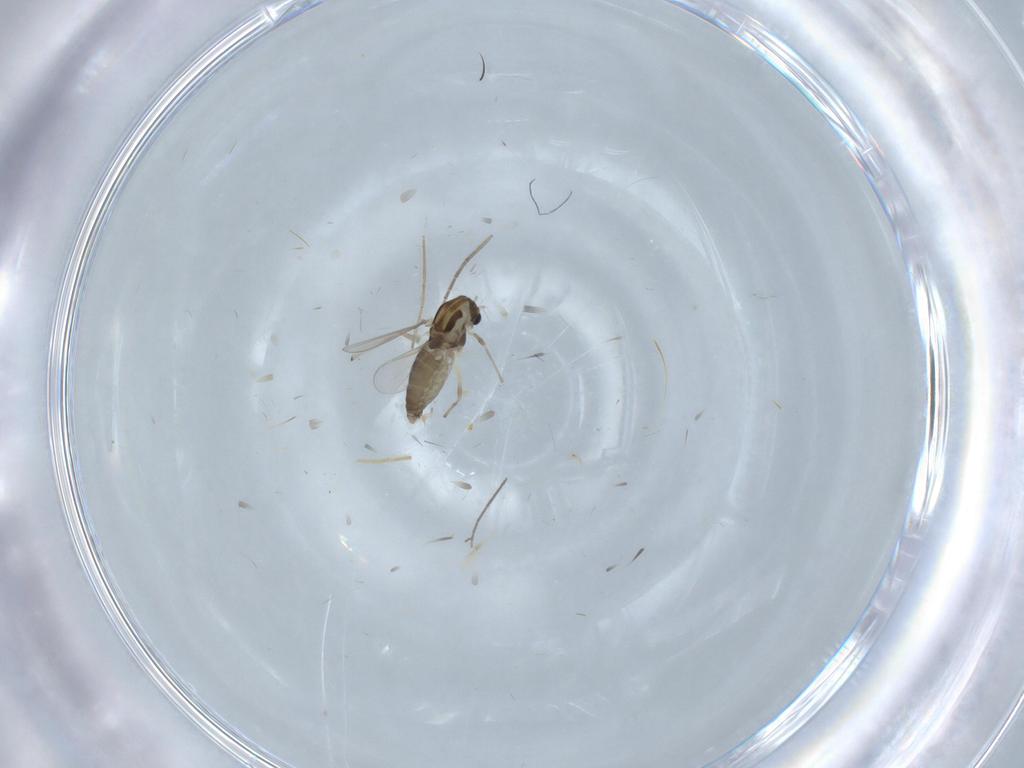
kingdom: Animalia
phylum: Arthropoda
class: Insecta
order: Diptera
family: Chironomidae
